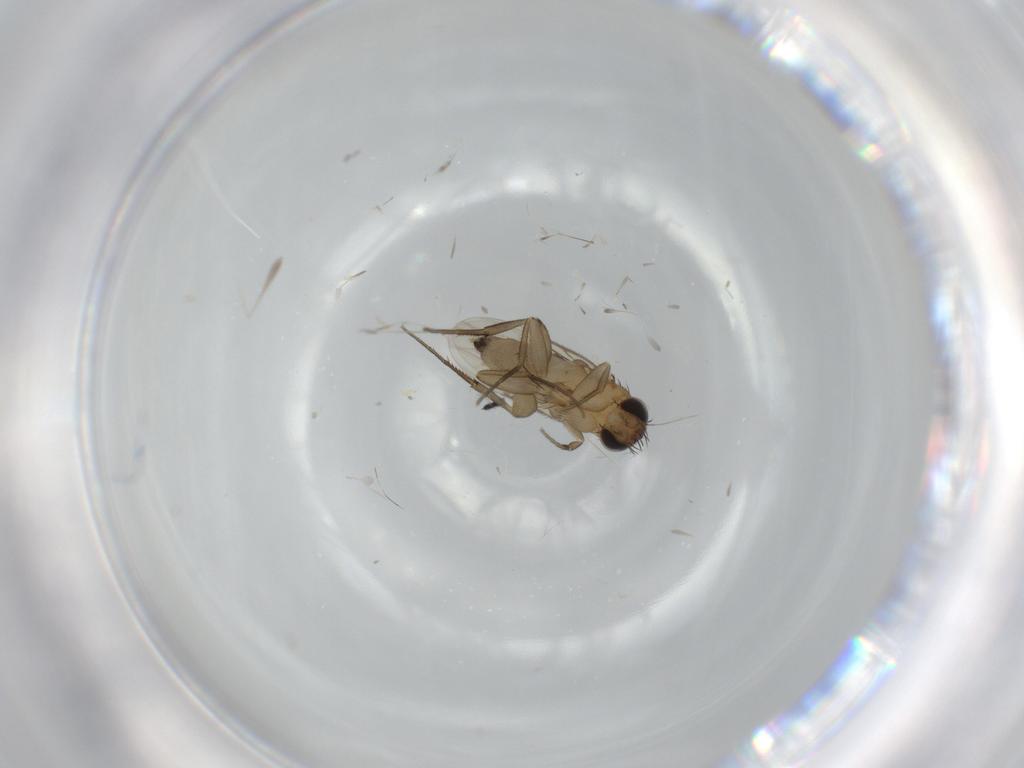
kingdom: Animalia
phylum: Arthropoda
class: Insecta
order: Diptera
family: Phoridae
